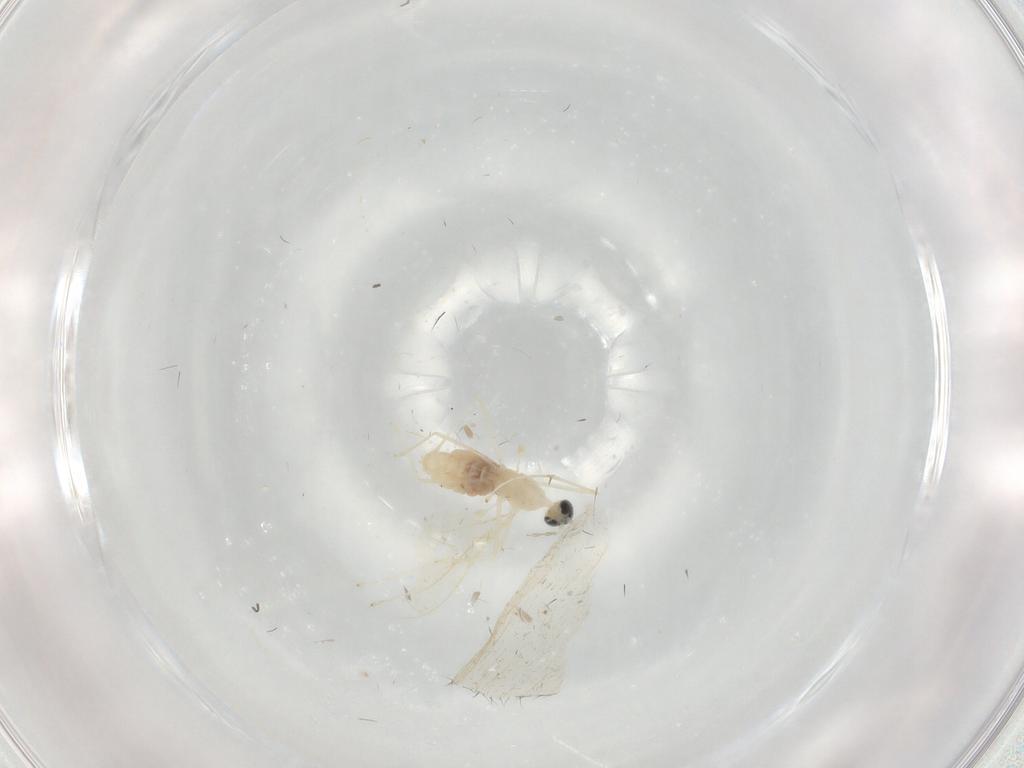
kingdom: Animalia
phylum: Arthropoda
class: Insecta
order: Diptera
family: Cecidomyiidae
